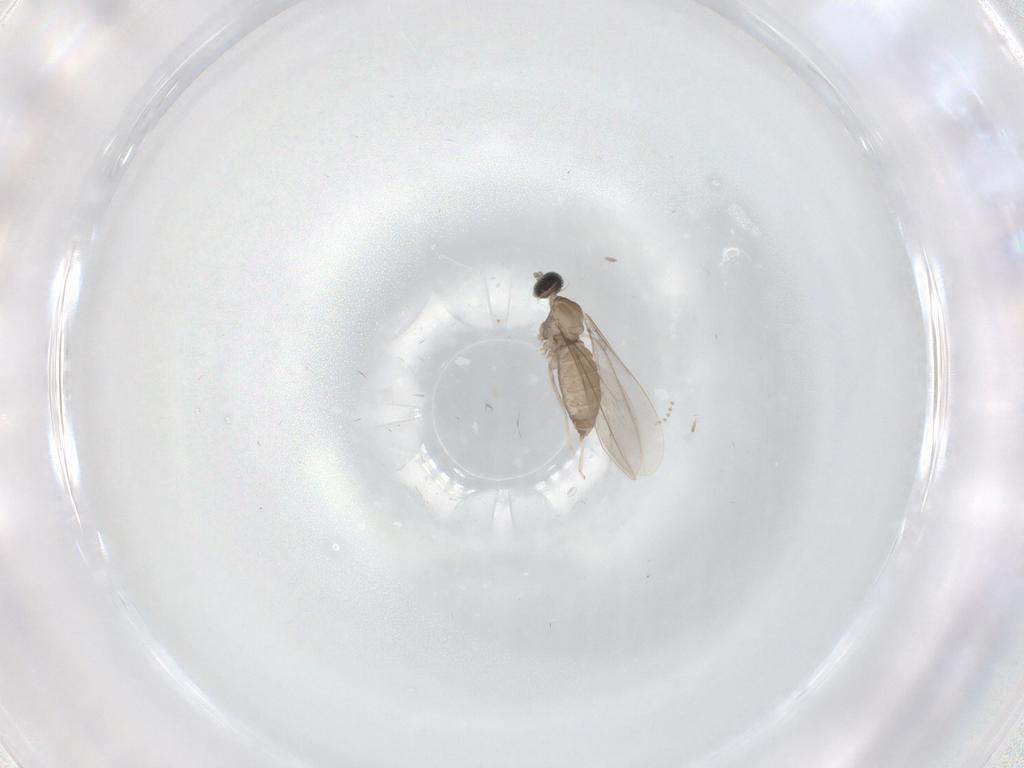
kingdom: Animalia
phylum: Arthropoda
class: Insecta
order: Diptera
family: Cecidomyiidae
